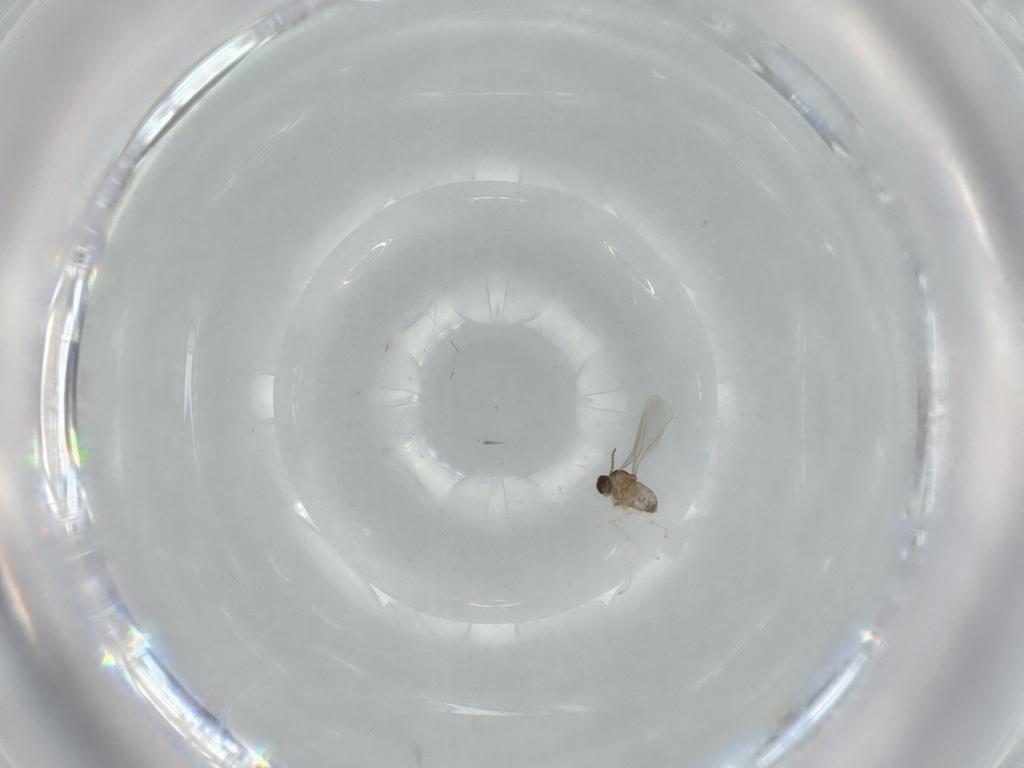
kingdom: Animalia
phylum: Arthropoda
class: Insecta
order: Diptera
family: Cecidomyiidae
